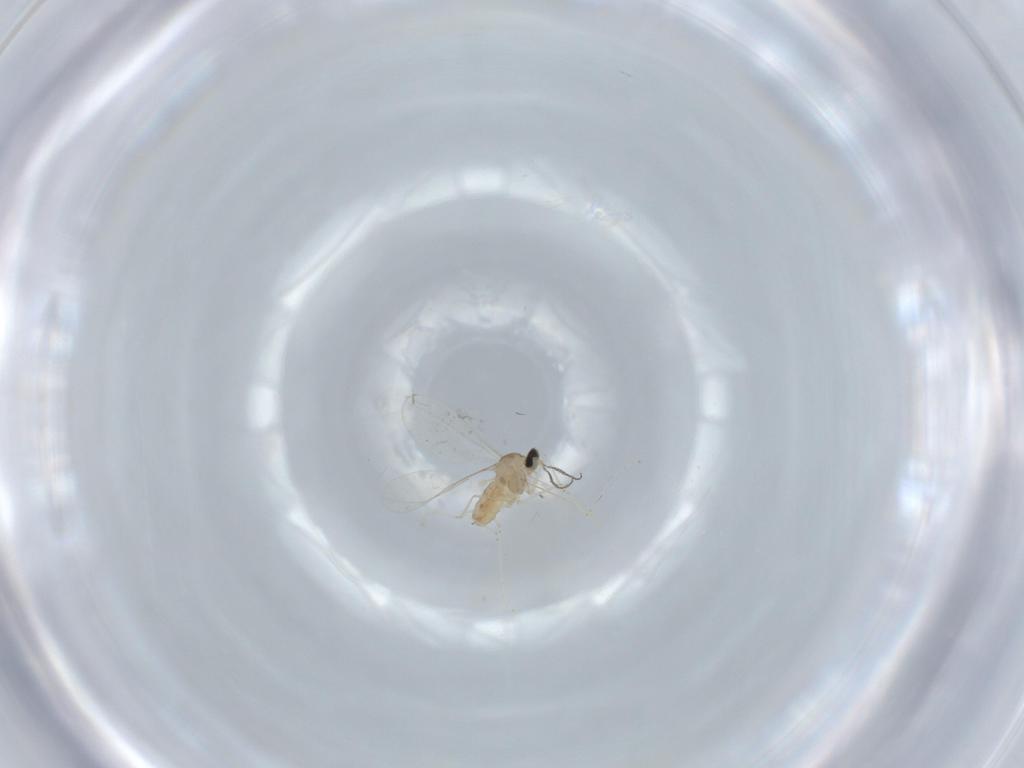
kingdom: Animalia
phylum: Arthropoda
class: Insecta
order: Diptera
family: Cecidomyiidae
